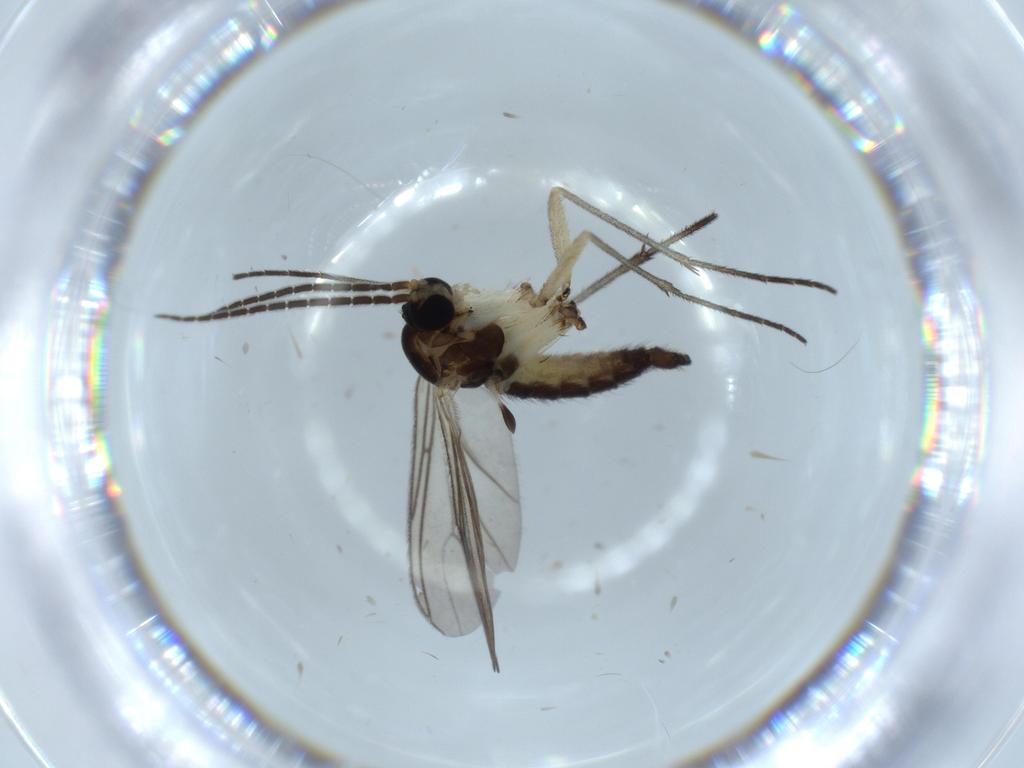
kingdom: Animalia
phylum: Arthropoda
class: Insecta
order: Diptera
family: Sciaridae
